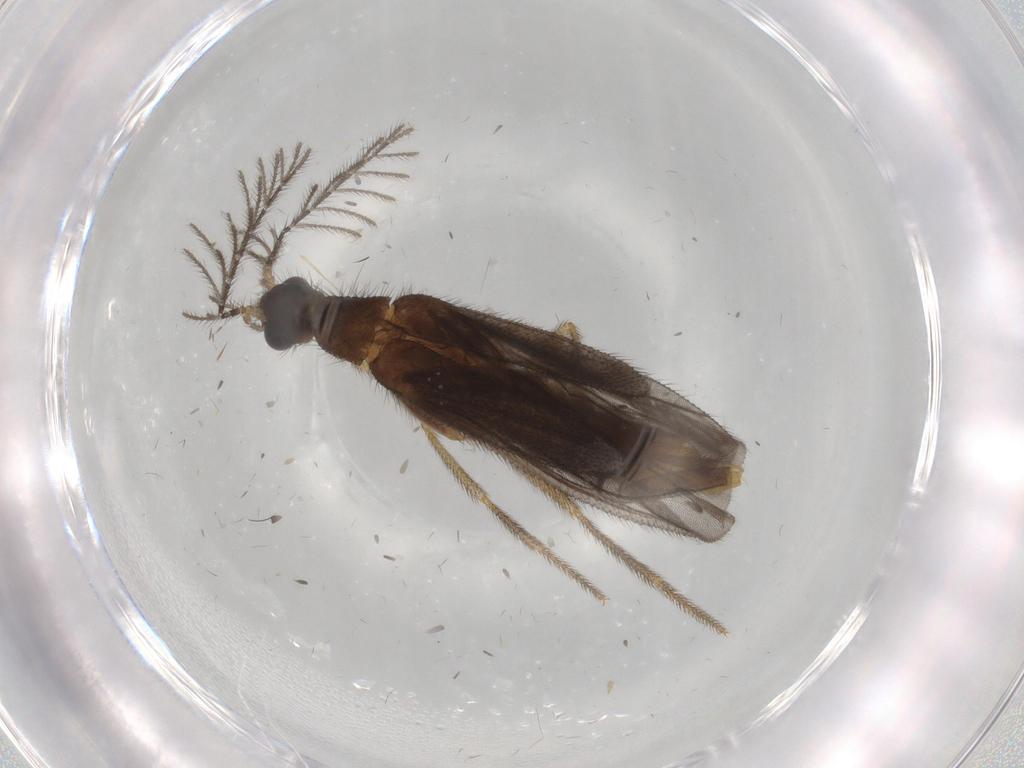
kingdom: Animalia
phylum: Arthropoda
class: Insecta
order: Coleoptera
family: Phengodidae
